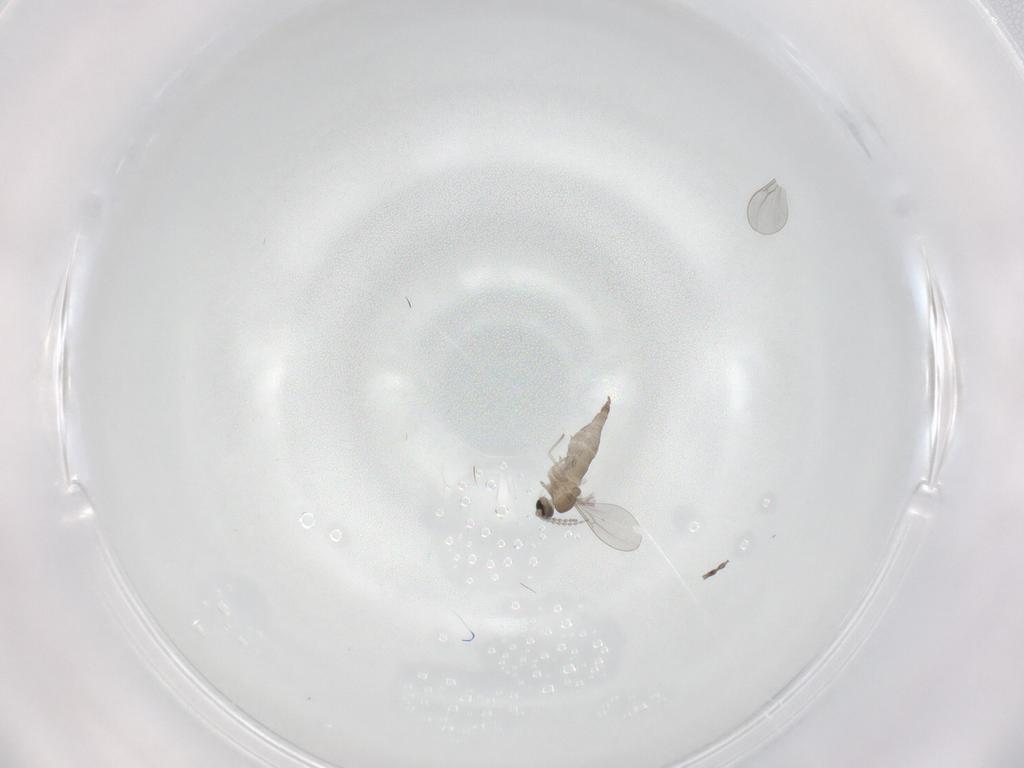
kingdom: Animalia
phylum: Arthropoda
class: Insecta
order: Diptera
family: Cecidomyiidae
